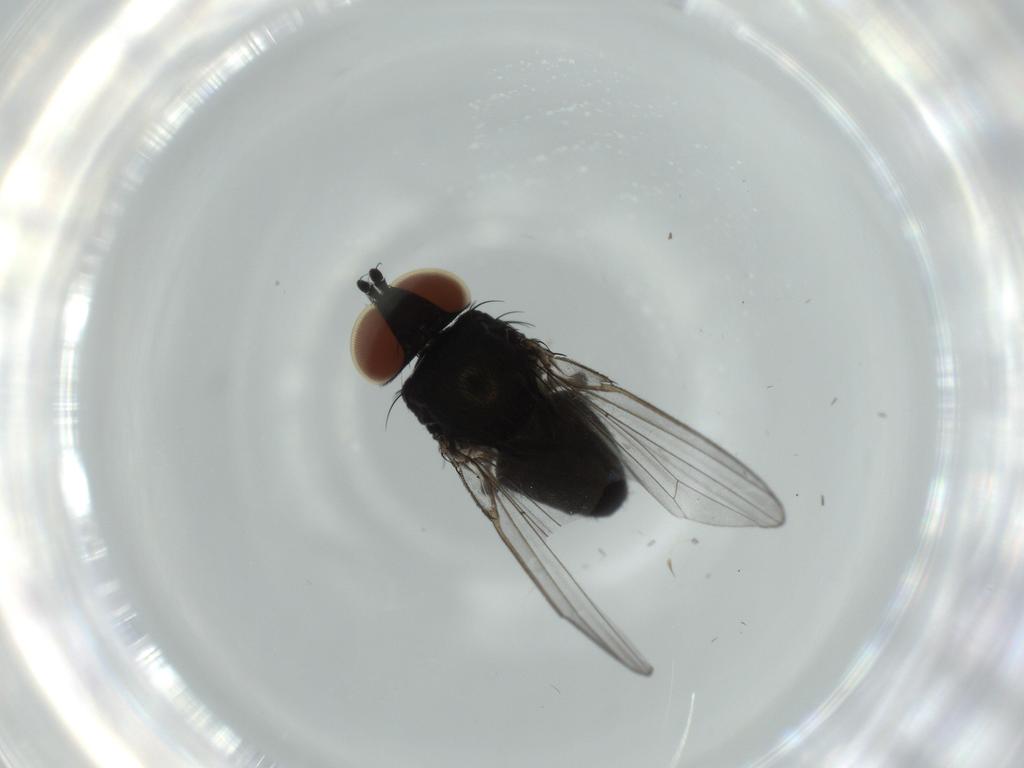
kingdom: Animalia
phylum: Arthropoda
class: Insecta
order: Diptera
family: Milichiidae
